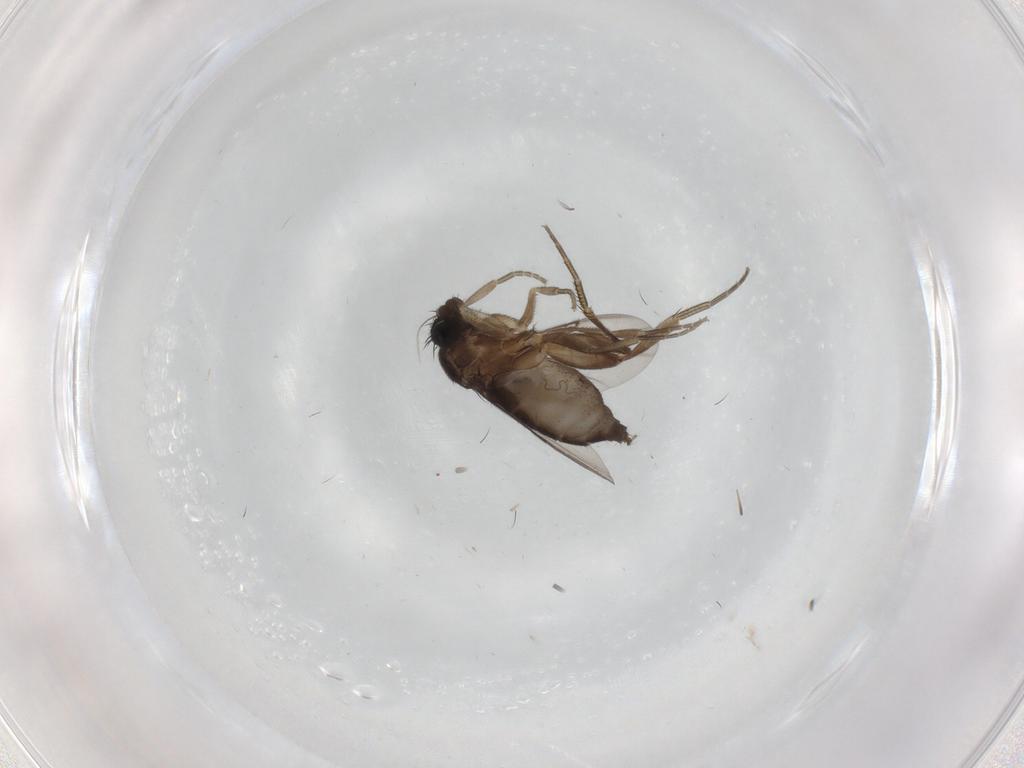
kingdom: Animalia
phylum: Arthropoda
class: Insecta
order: Diptera
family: Phoridae
